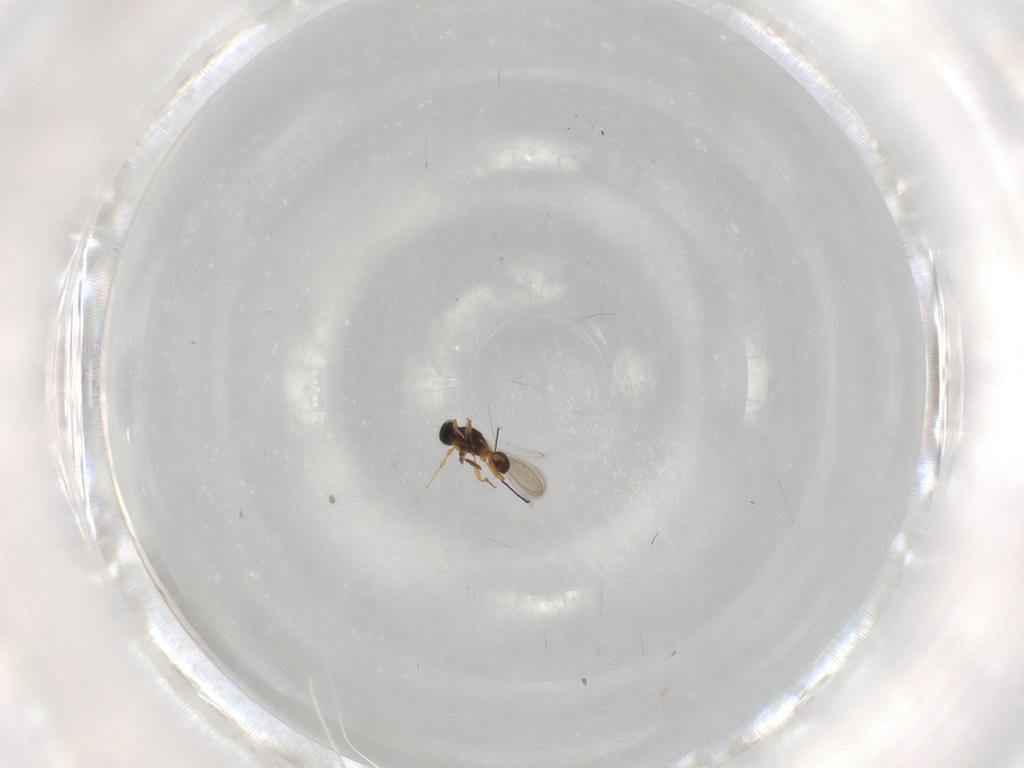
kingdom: Animalia
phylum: Arthropoda
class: Insecta
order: Hymenoptera
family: Platygastridae
